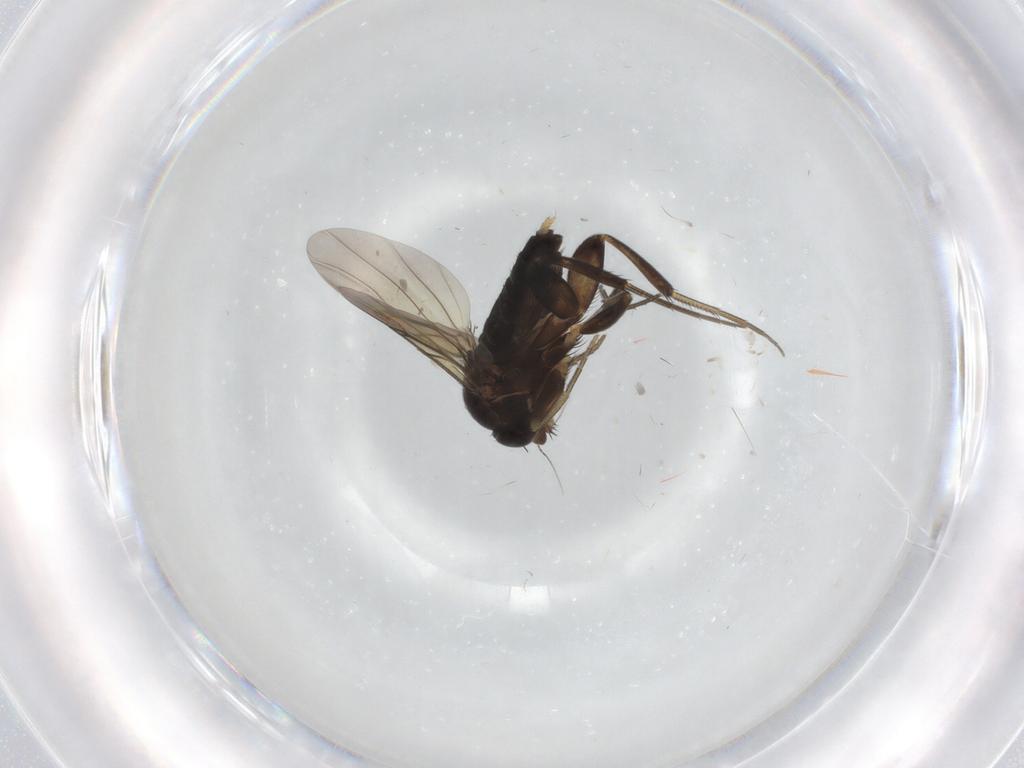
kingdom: Animalia
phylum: Arthropoda
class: Insecta
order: Diptera
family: Phoridae
